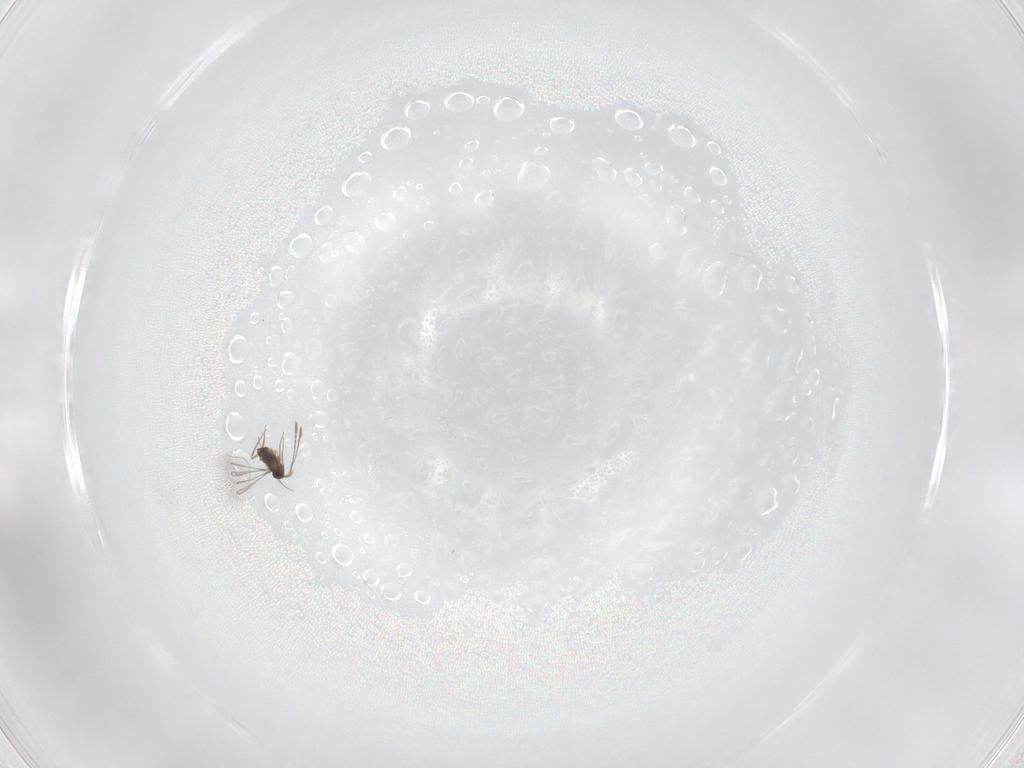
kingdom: Animalia
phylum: Arthropoda
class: Insecta
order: Hymenoptera
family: Mymaridae
